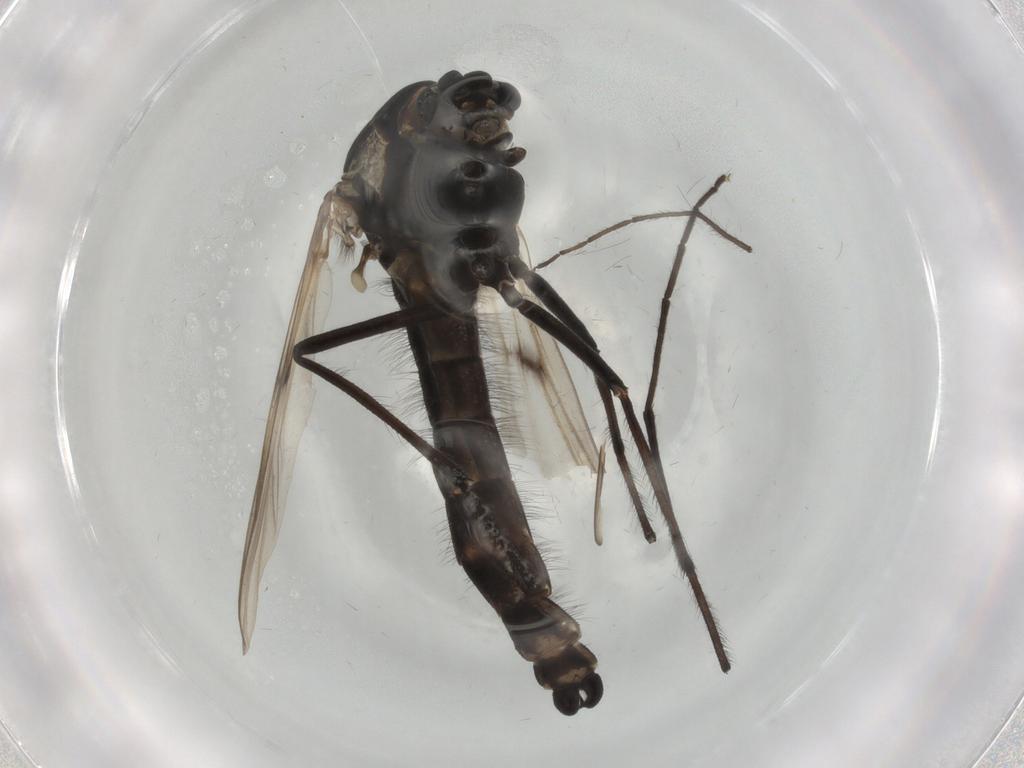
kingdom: Animalia
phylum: Arthropoda
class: Insecta
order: Diptera
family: Chironomidae
